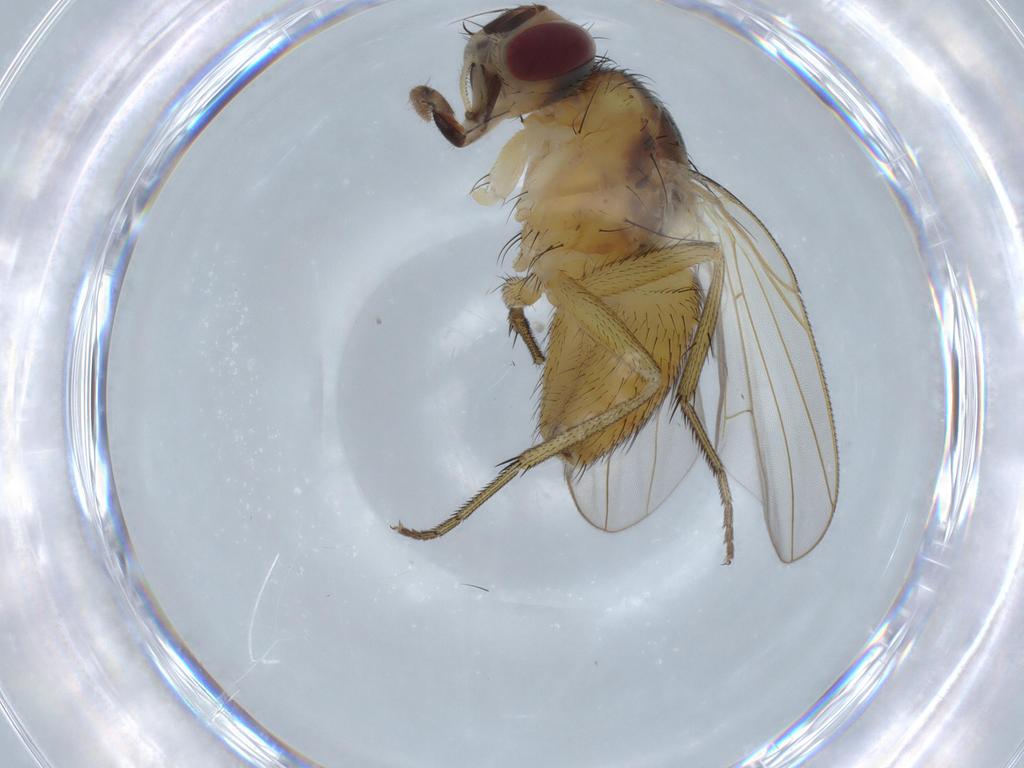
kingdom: Animalia
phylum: Arthropoda
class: Insecta
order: Diptera
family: Muscidae
